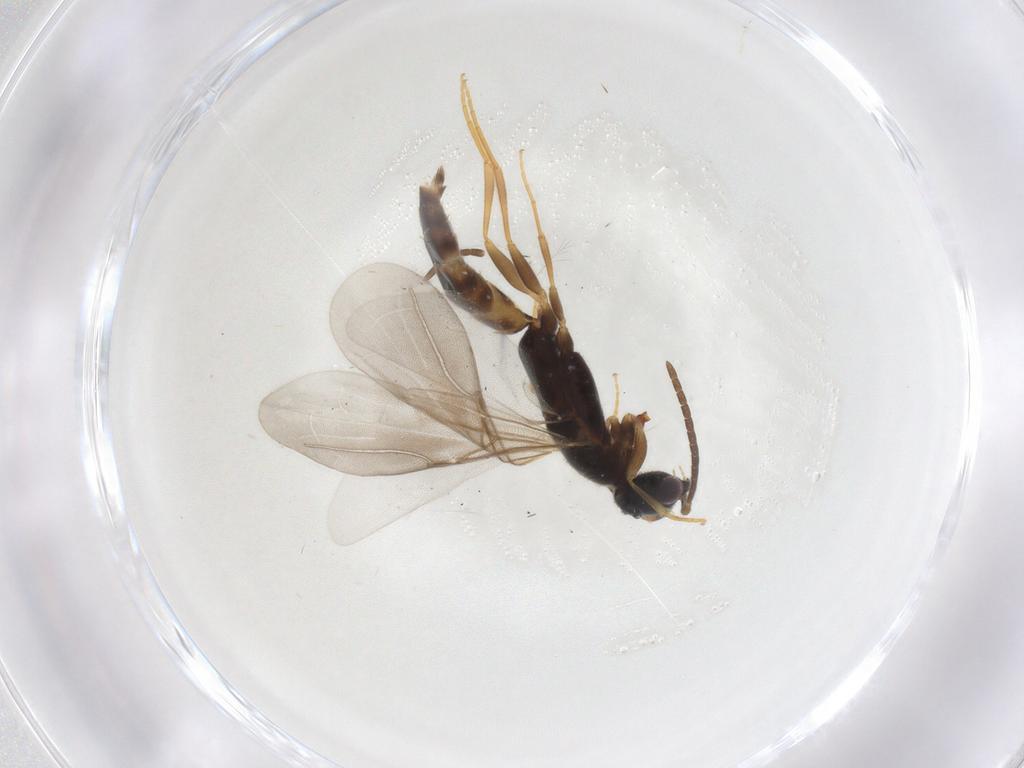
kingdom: Animalia
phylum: Arthropoda
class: Insecta
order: Diptera
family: Asilidae
